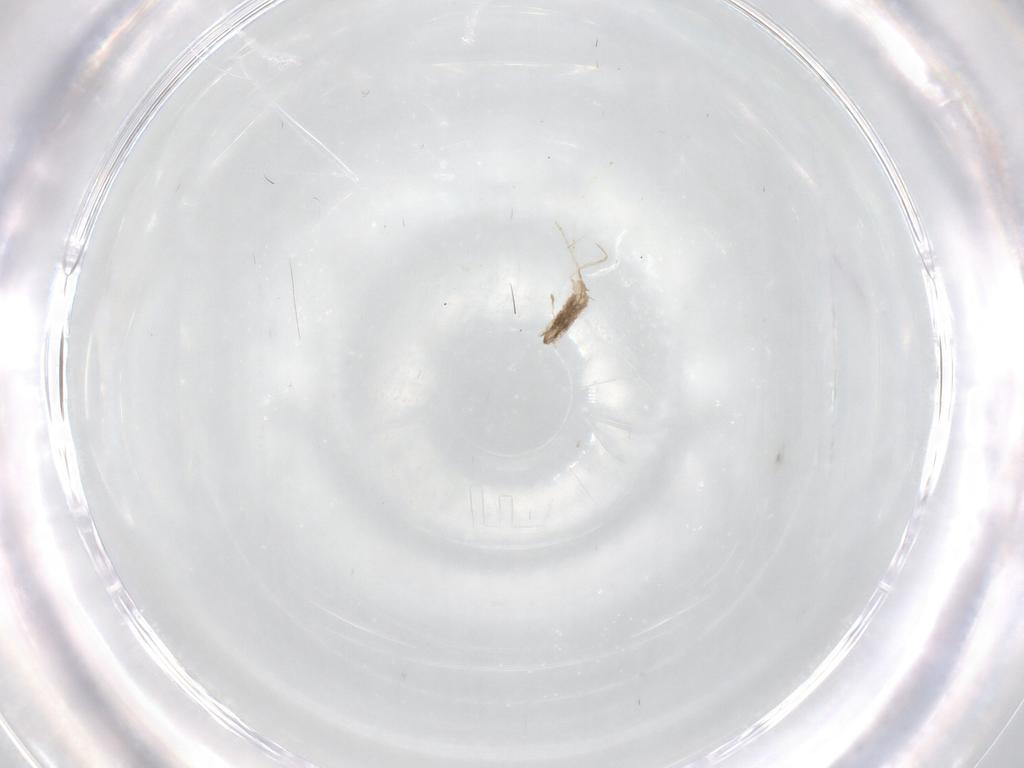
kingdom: Animalia
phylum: Arthropoda
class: Insecta
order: Diptera
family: Cecidomyiidae
